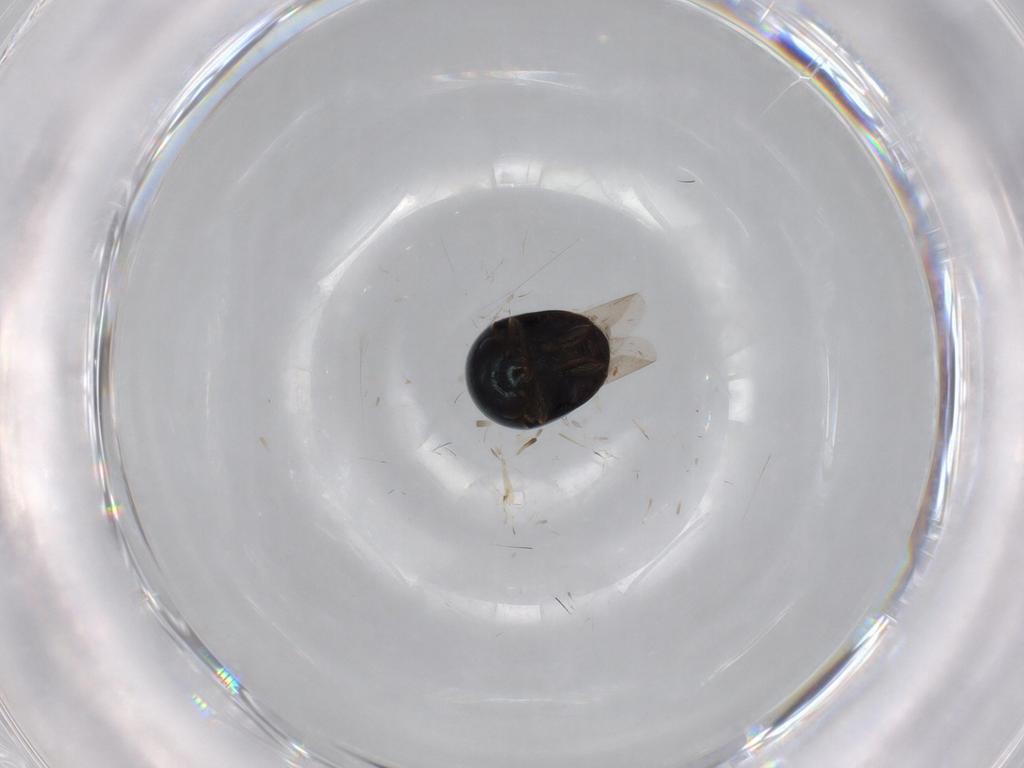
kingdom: Animalia
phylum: Arthropoda
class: Insecta
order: Coleoptera
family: Cybocephalidae
